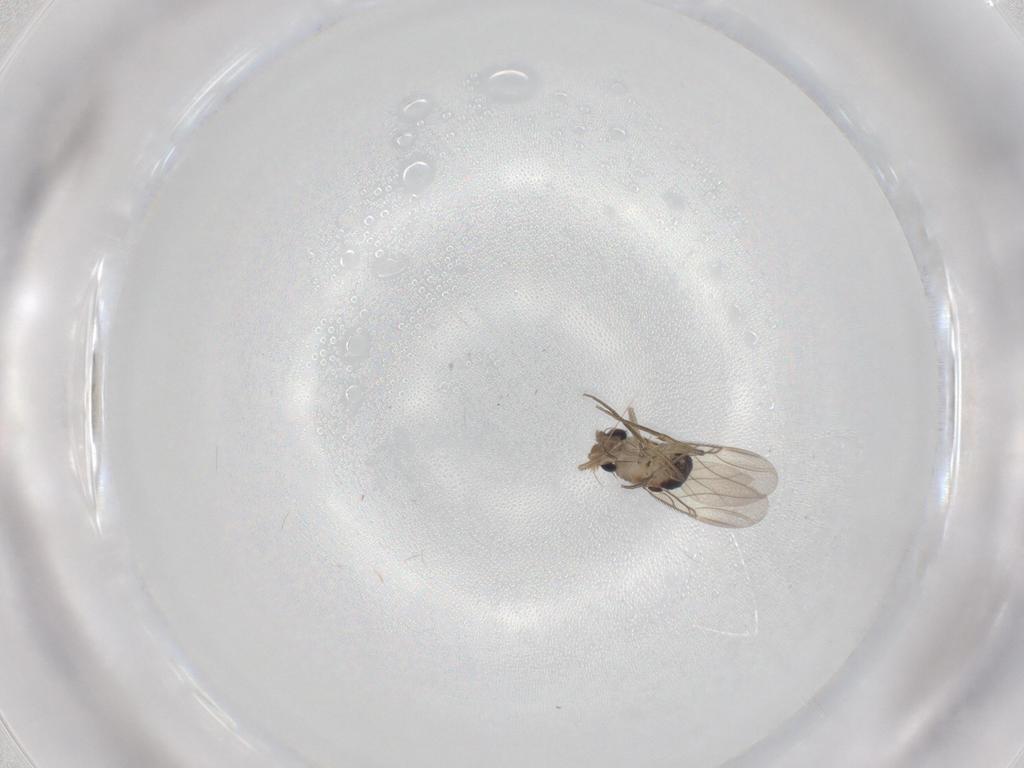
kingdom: Animalia
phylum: Arthropoda
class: Insecta
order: Diptera
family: Phoridae
